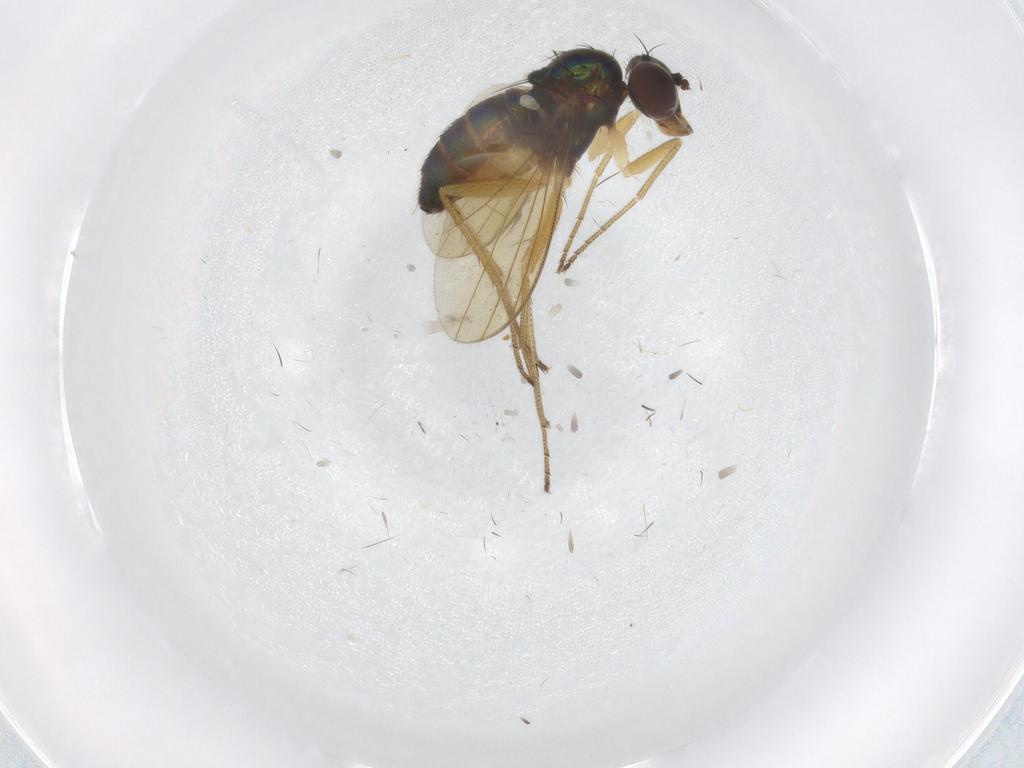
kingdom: Animalia
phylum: Arthropoda
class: Insecta
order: Diptera
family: Dolichopodidae
